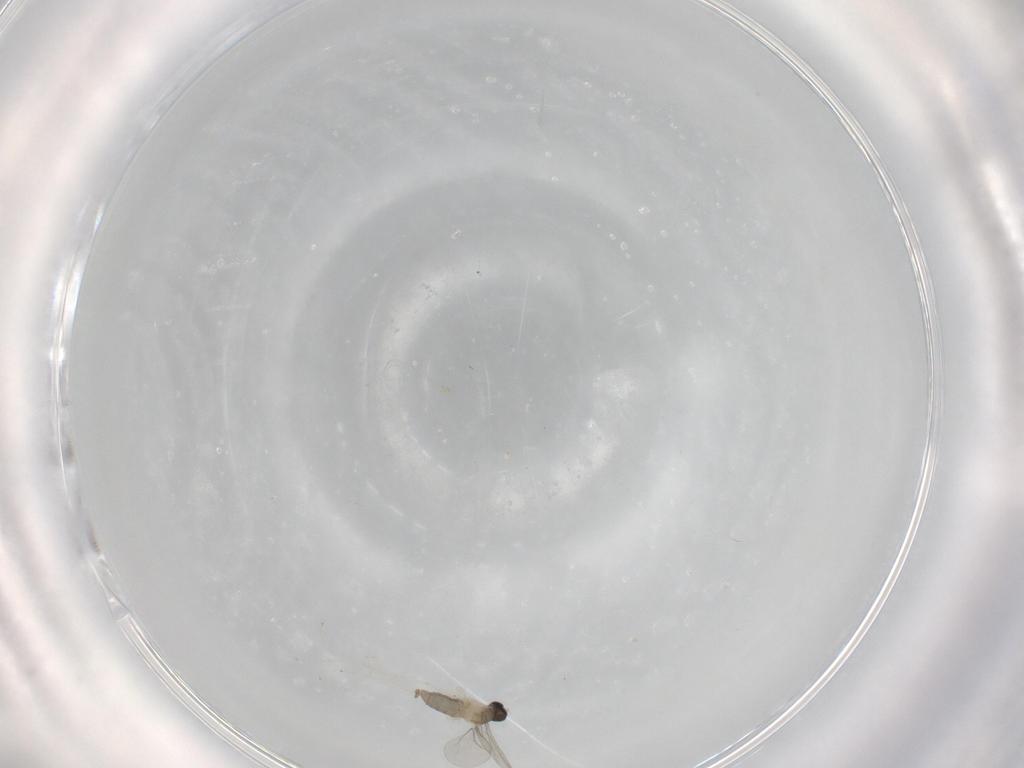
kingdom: Animalia
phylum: Arthropoda
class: Insecta
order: Diptera
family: Cecidomyiidae
